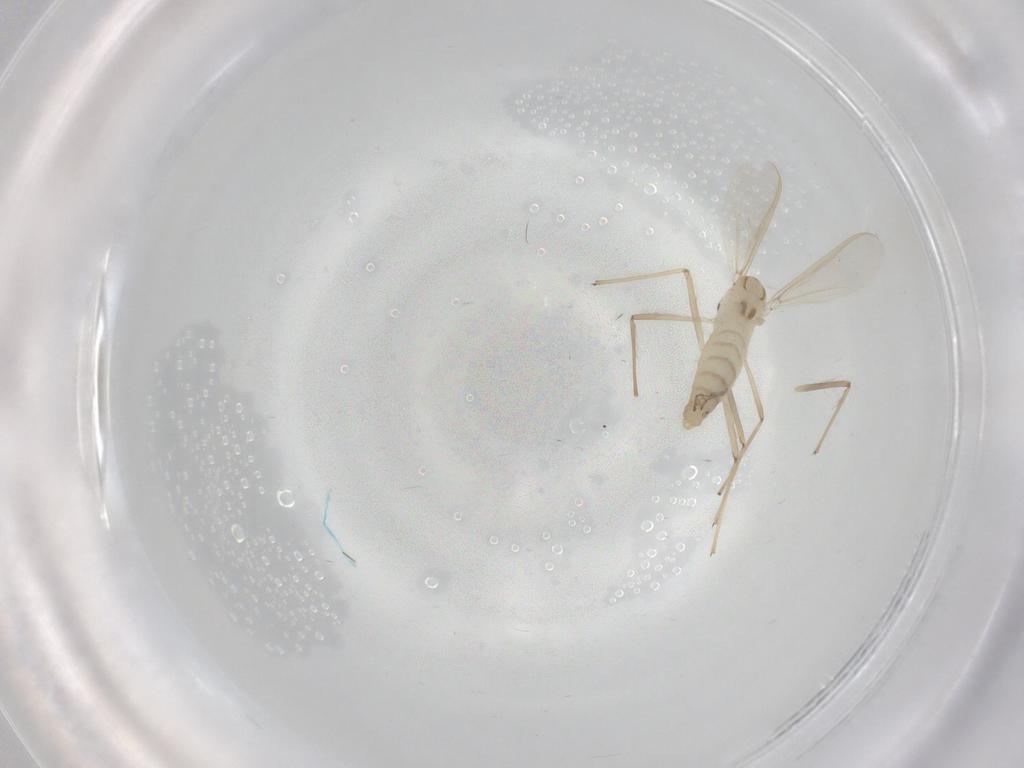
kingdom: Animalia
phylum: Arthropoda
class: Insecta
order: Diptera
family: Chironomidae
